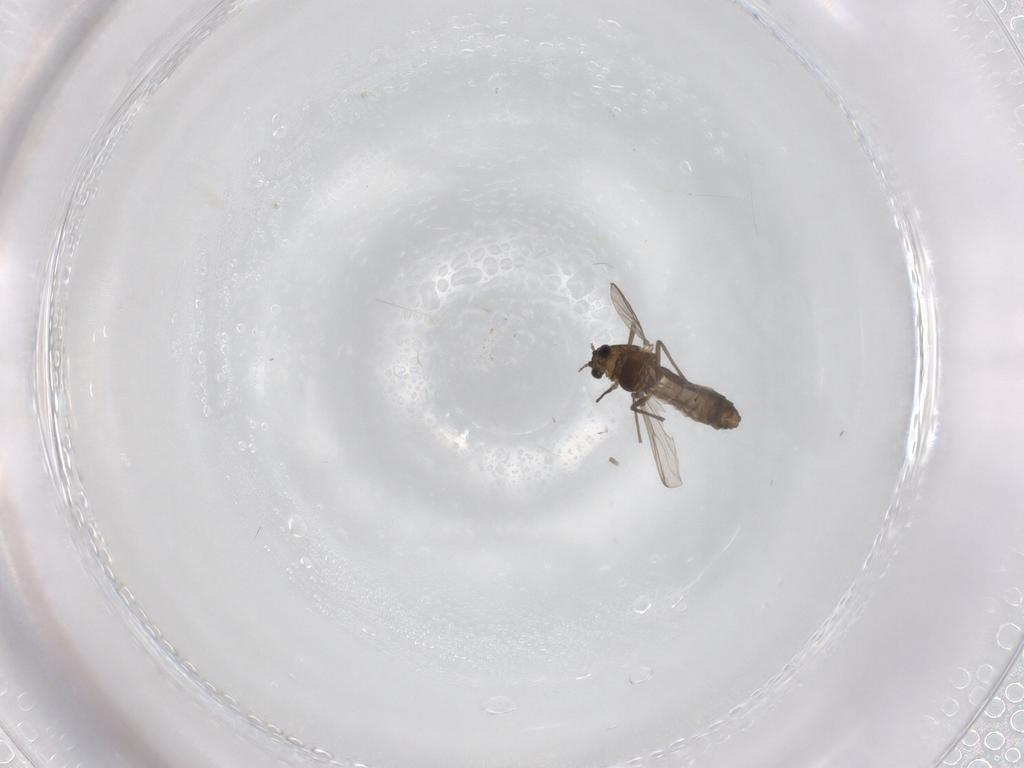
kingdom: Animalia
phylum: Arthropoda
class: Insecta
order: Diptera
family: Chironomidae
